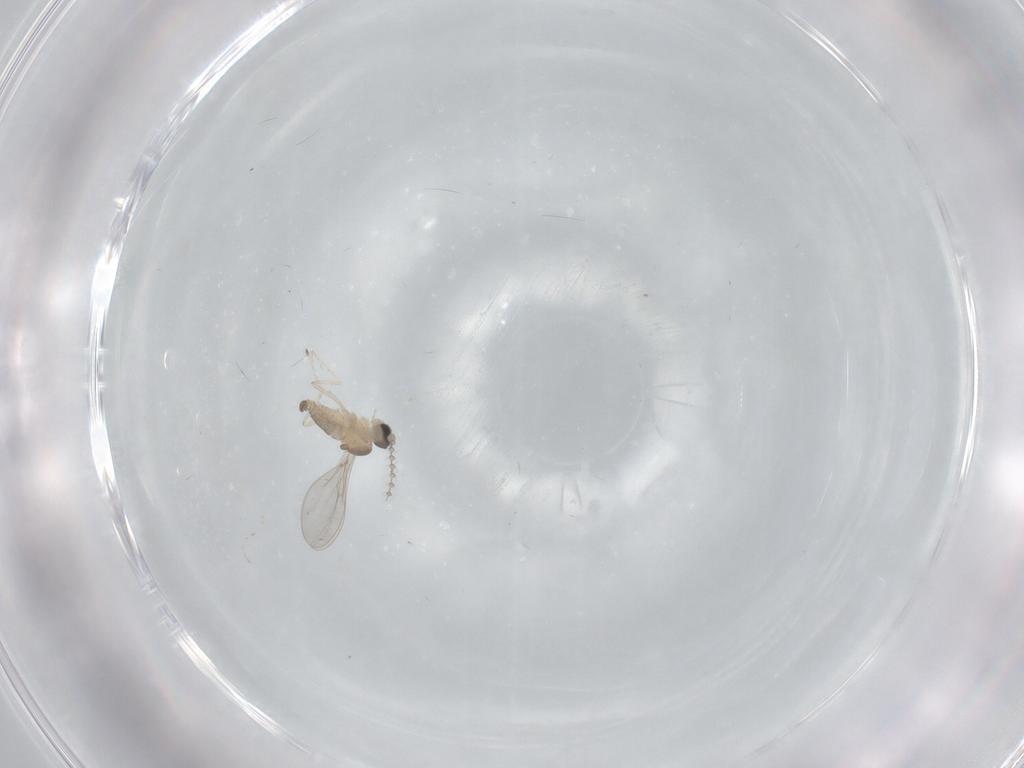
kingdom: Animalia
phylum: Arthropoda
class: Insecta
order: Diptera
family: Cecidomyiidae
